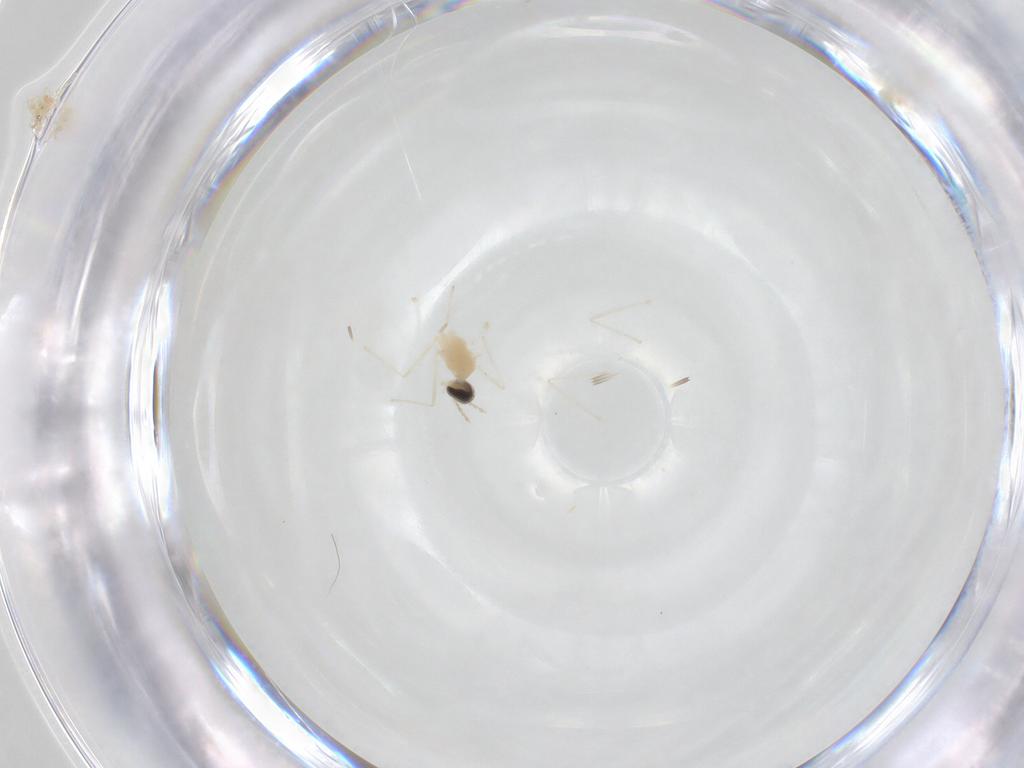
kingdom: Animalia
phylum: Arthropoda
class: Insecta
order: Diptera
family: Cecidomyiidae
